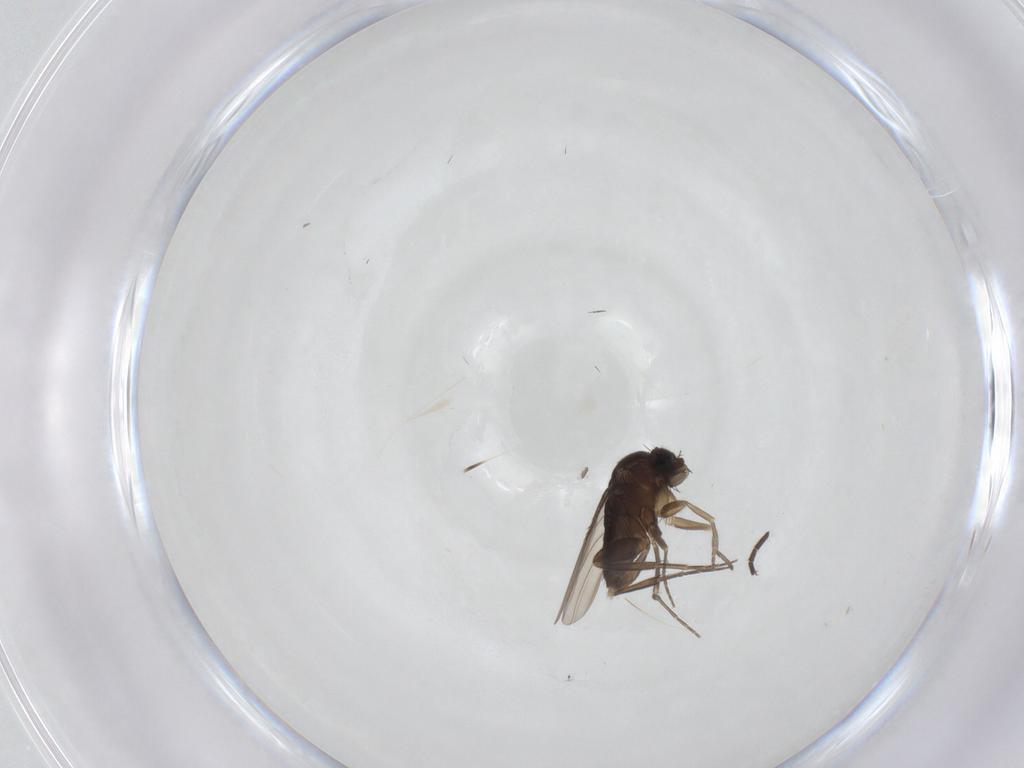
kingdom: Animalia
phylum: Arthropoda
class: Insecta
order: Diptera
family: Phoridae
